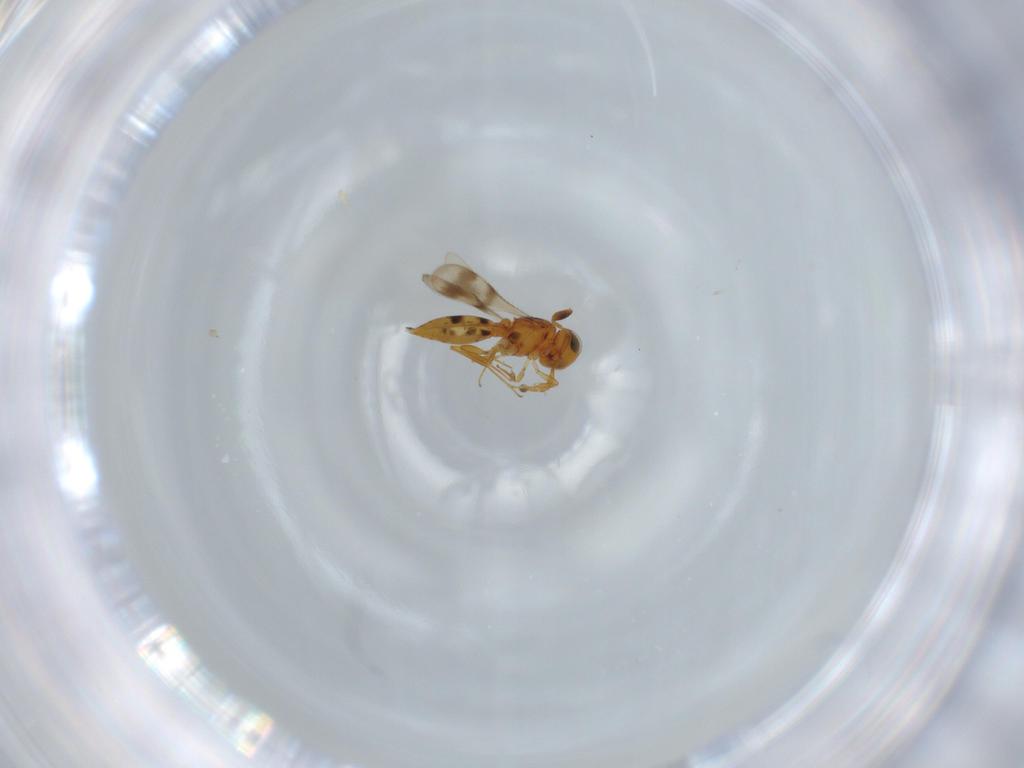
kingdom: Animalia
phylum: Arthropoda
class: Insecta
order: Hymenoptera
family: Scelionidae
